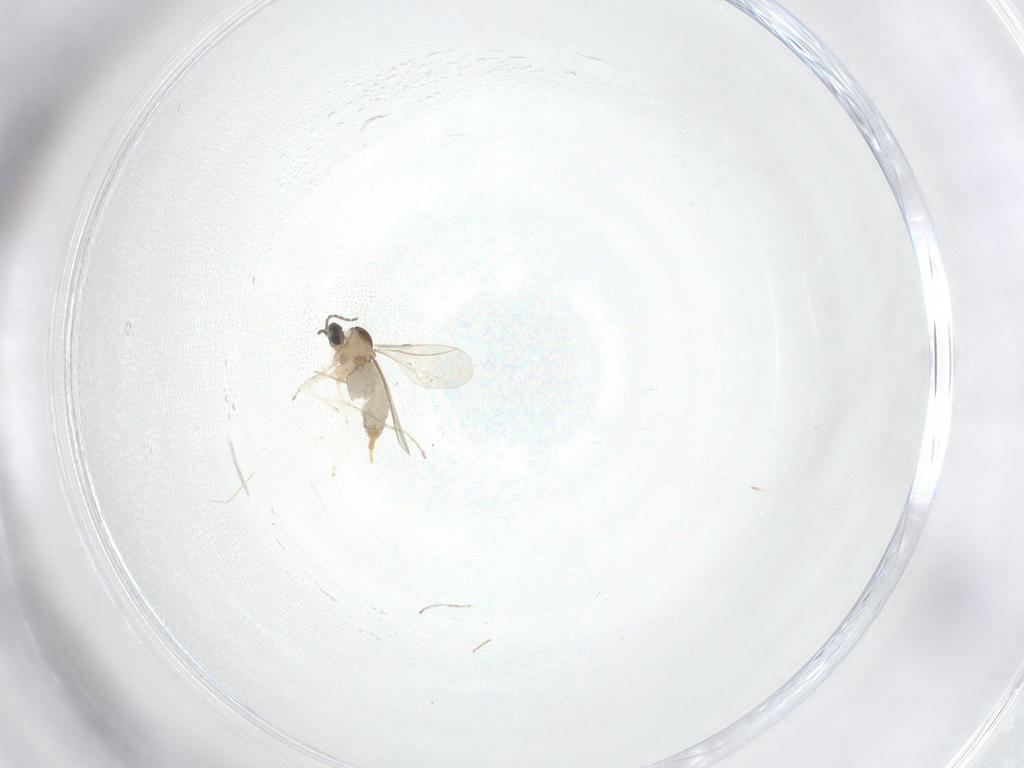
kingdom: Animalia
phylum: Arthropoda
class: Insecta
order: Diptera
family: Cecidomyiidae
